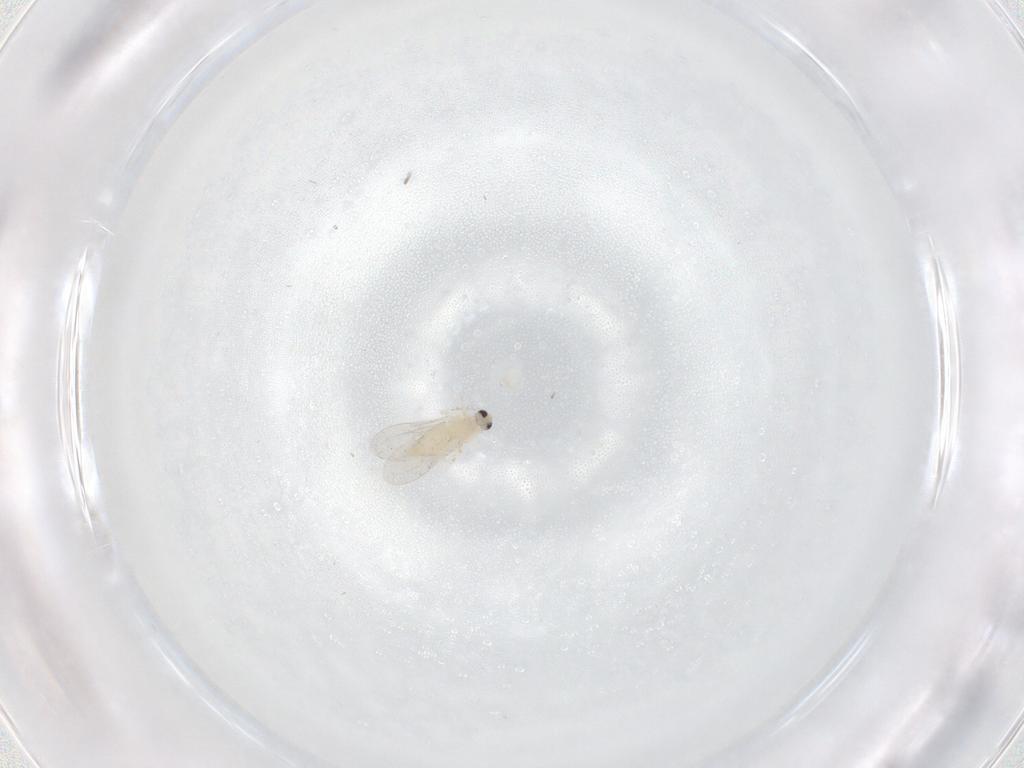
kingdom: Animalia
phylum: Arthropoda
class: Insecta
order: Diptera
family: Cecidomyiidae
